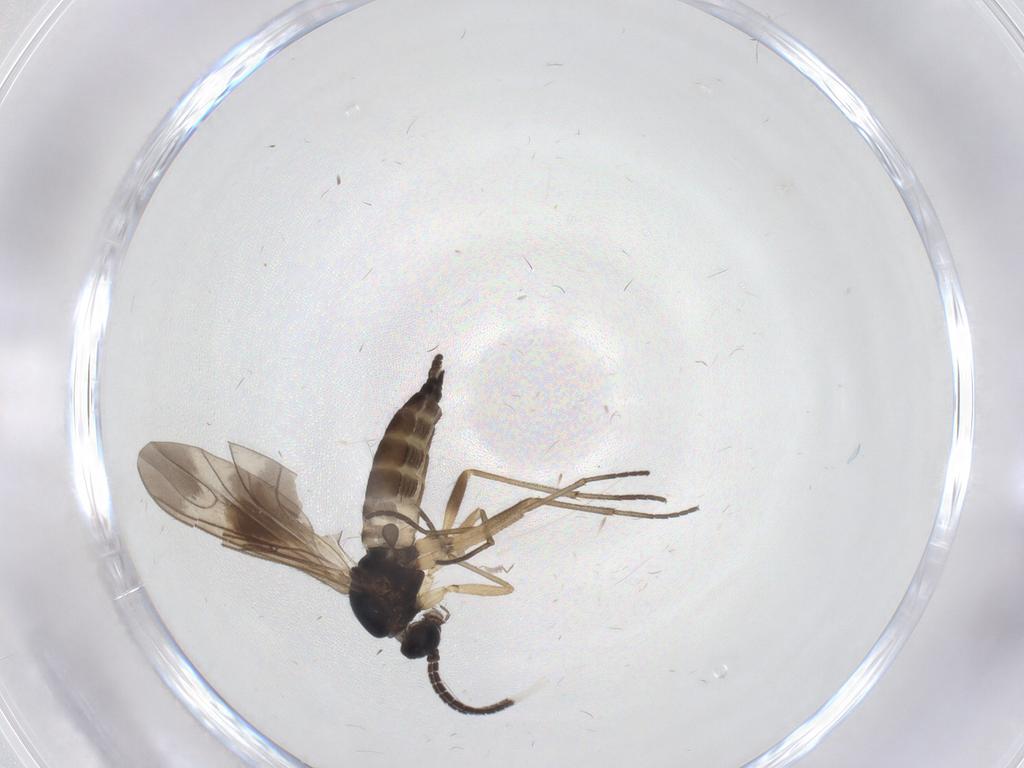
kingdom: Animalia
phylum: Arthropoda
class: Insecta
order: Diptera
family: Sciaridae
